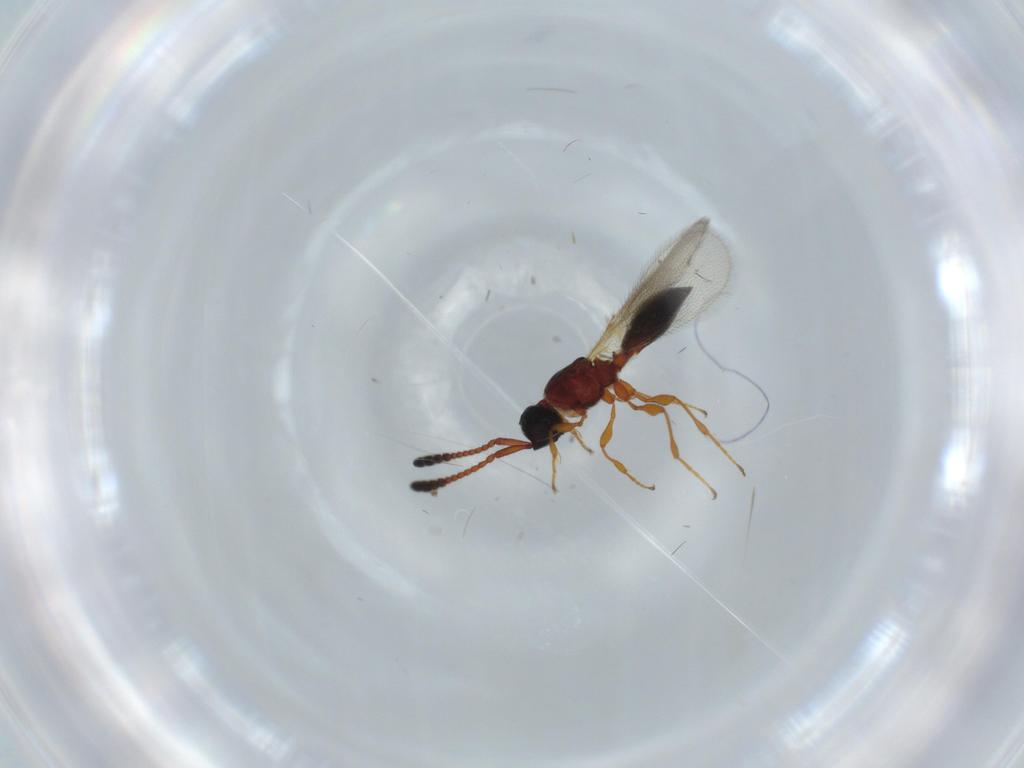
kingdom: Animalia
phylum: Arthropoda
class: Insecta
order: Hymenoptera
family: Diapriidae
